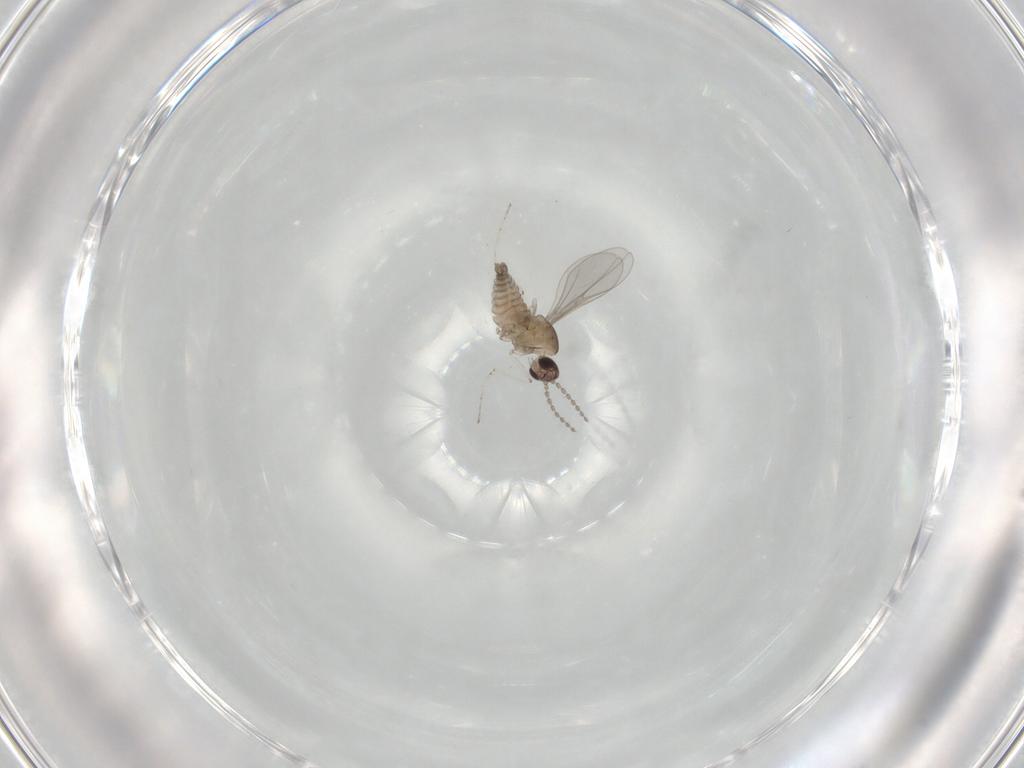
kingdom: Animalia
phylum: Arthropoda
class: Insecta
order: Diptera
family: Cecidomyiidae
